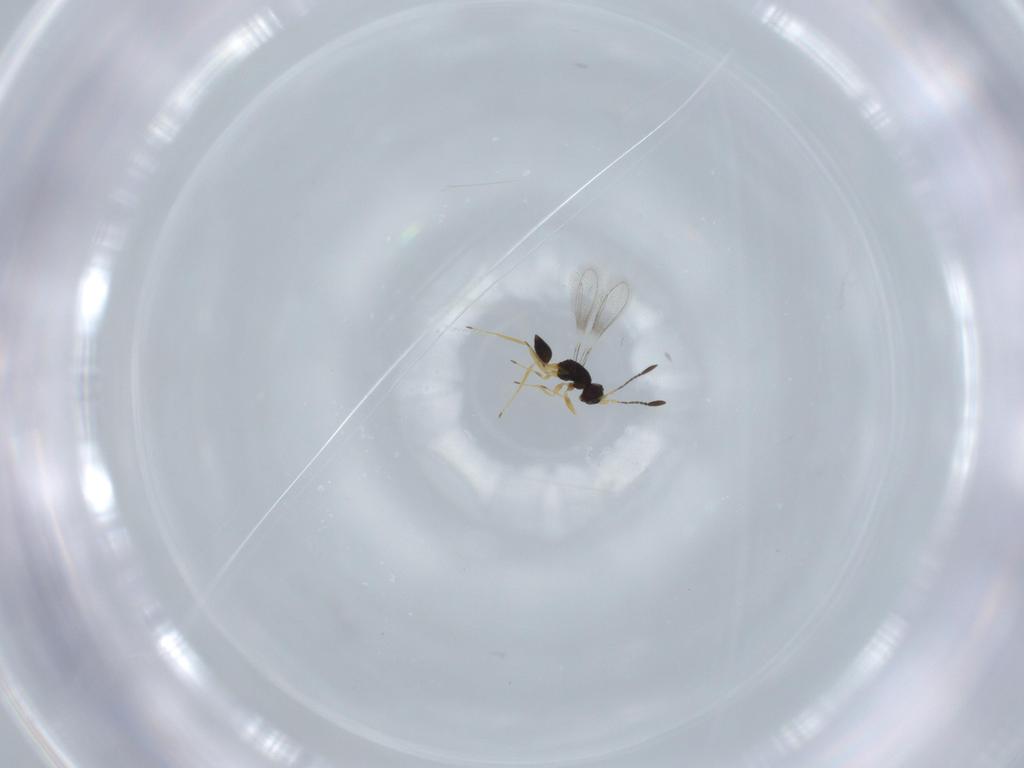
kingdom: Animalia
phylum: Arthropoda
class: Insecta
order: Hymenoptera
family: Mymaridae
